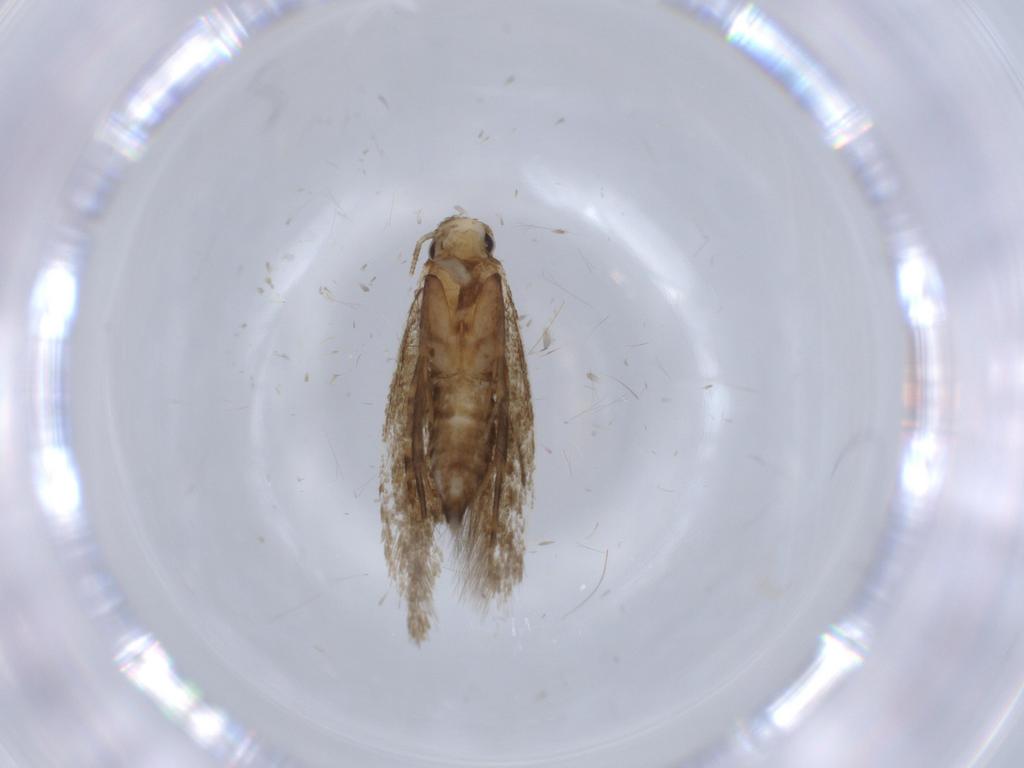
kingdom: Animalia
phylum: Arthropoda
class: Insecta
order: Lepidoptera
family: Tineidae
